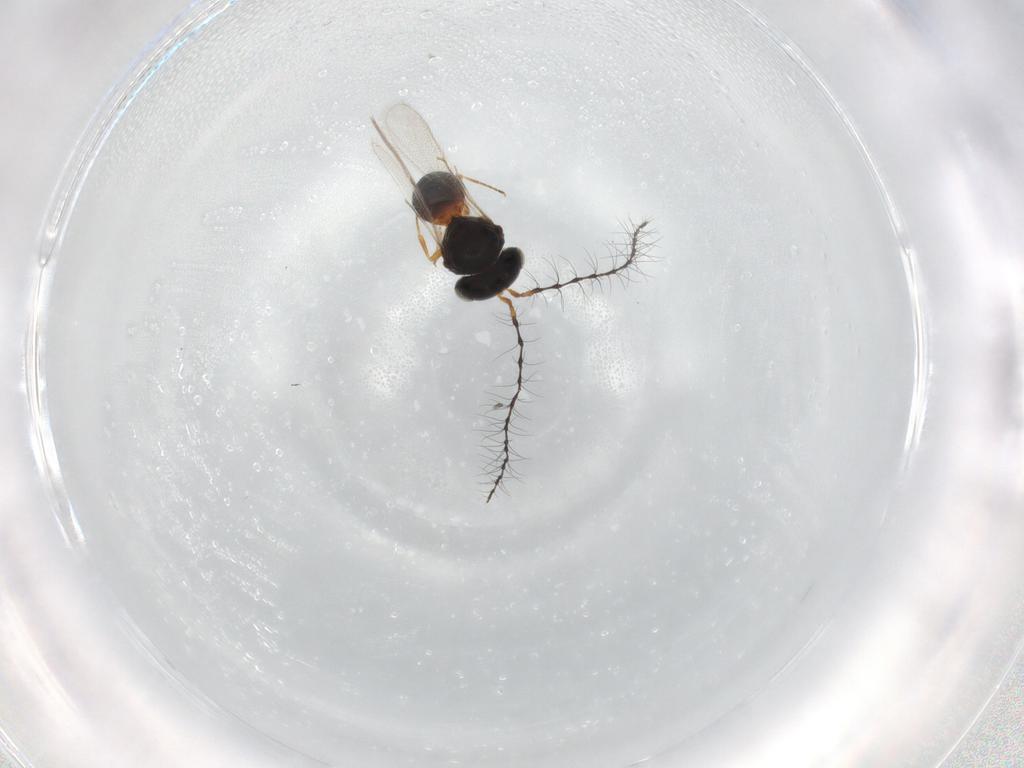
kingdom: Animalia
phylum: Arthropoda
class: Insecta
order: Hymenoptera
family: Scelionidae
